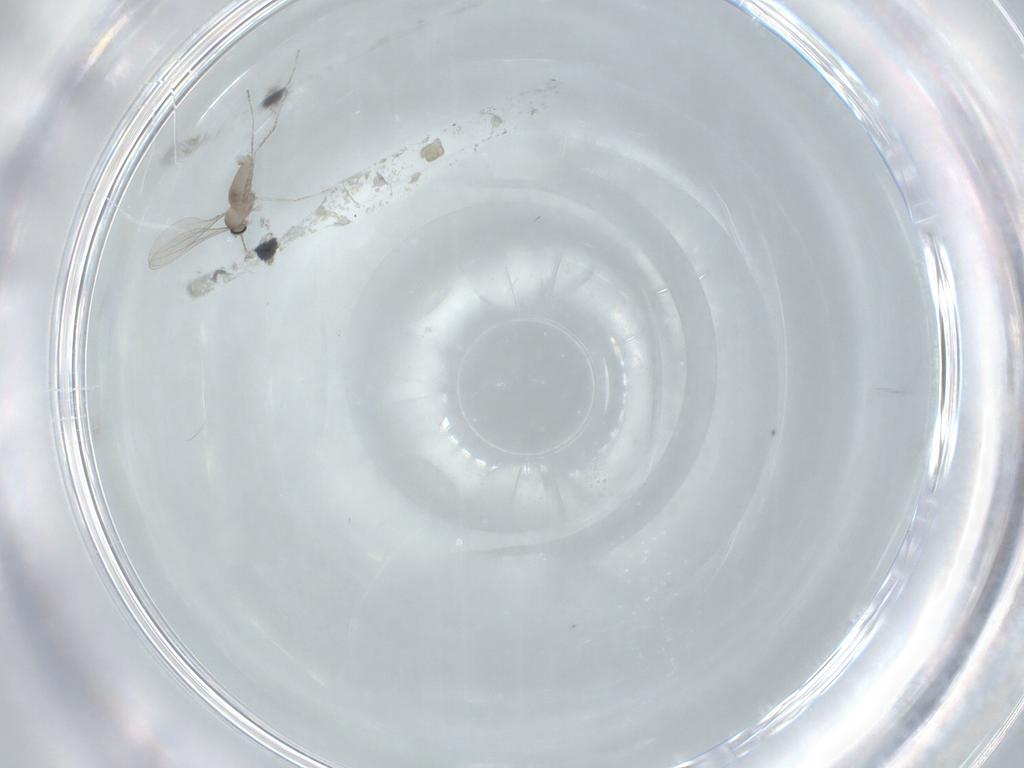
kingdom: Animalia
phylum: Arthropoda
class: Insecta
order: Diptera
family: Cecidomyiidae
